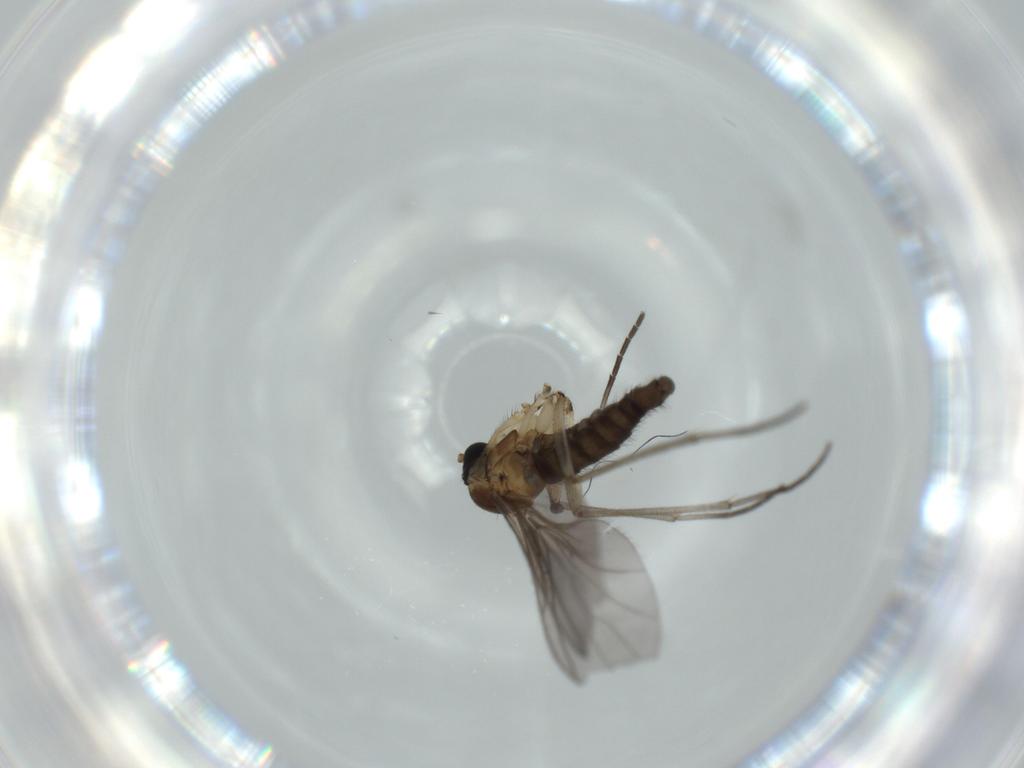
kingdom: Animalia
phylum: Arthropoda
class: Insecta
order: Diptera
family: Sciaridae
